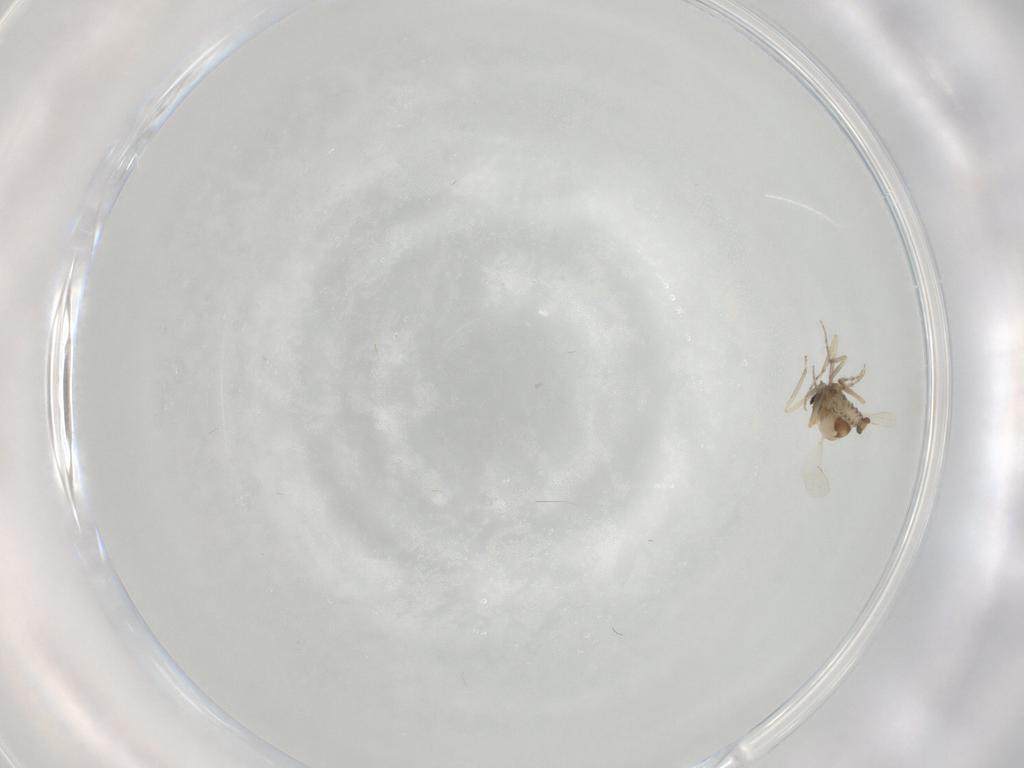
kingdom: Animalia
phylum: Arthropoda
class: Insecta
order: Diptera
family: Ceratopogonidae
